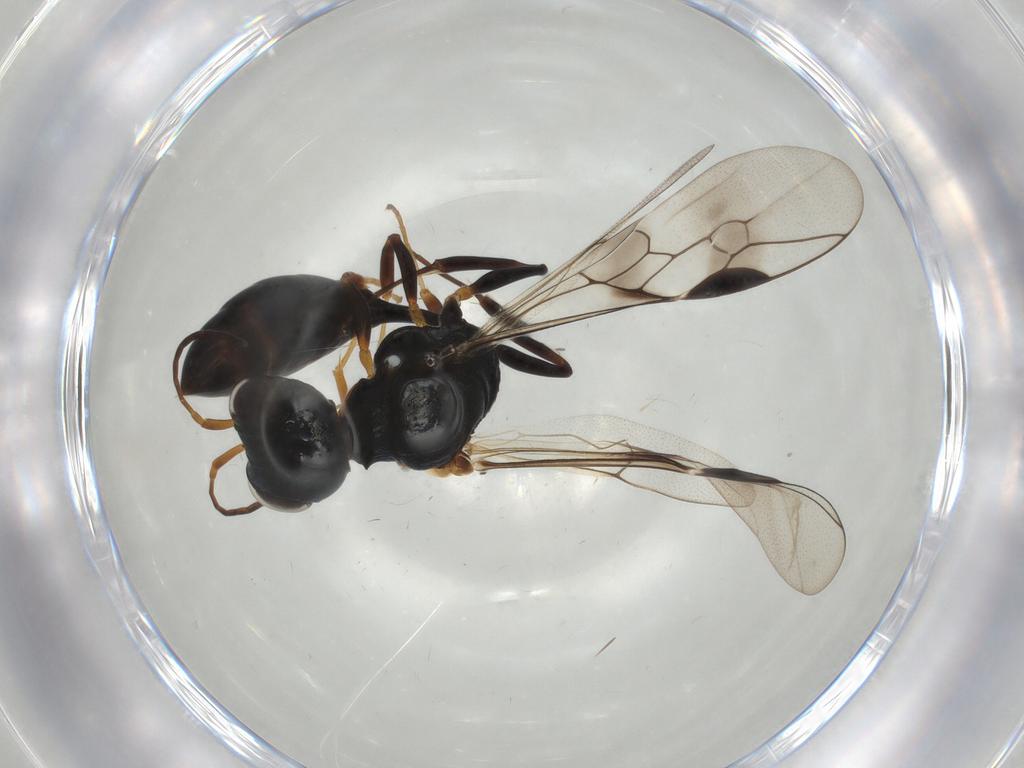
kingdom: Animalia
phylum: Arthropoda
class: Insecta
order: Hymenoptera
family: Pemphredonidae
